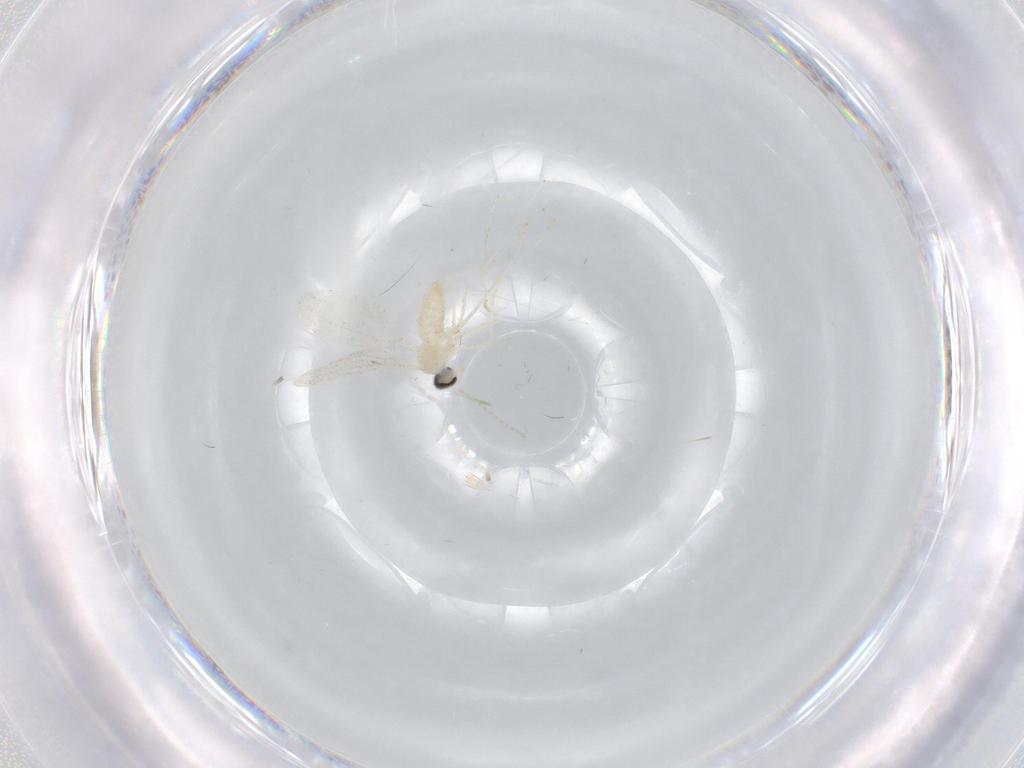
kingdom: Animalia
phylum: Arthropoda
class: Insecta
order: Diptera
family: Cecidomyiidae
